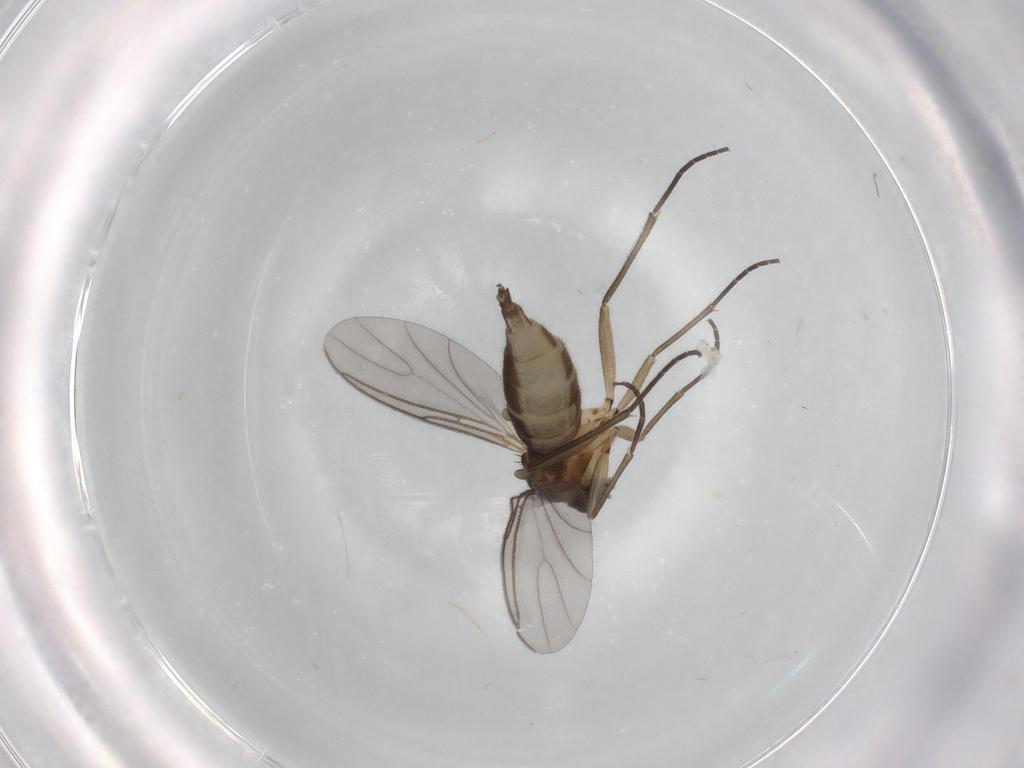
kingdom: Animalia
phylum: Arthropoda
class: Insecta
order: Diptera
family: Sciaridae
